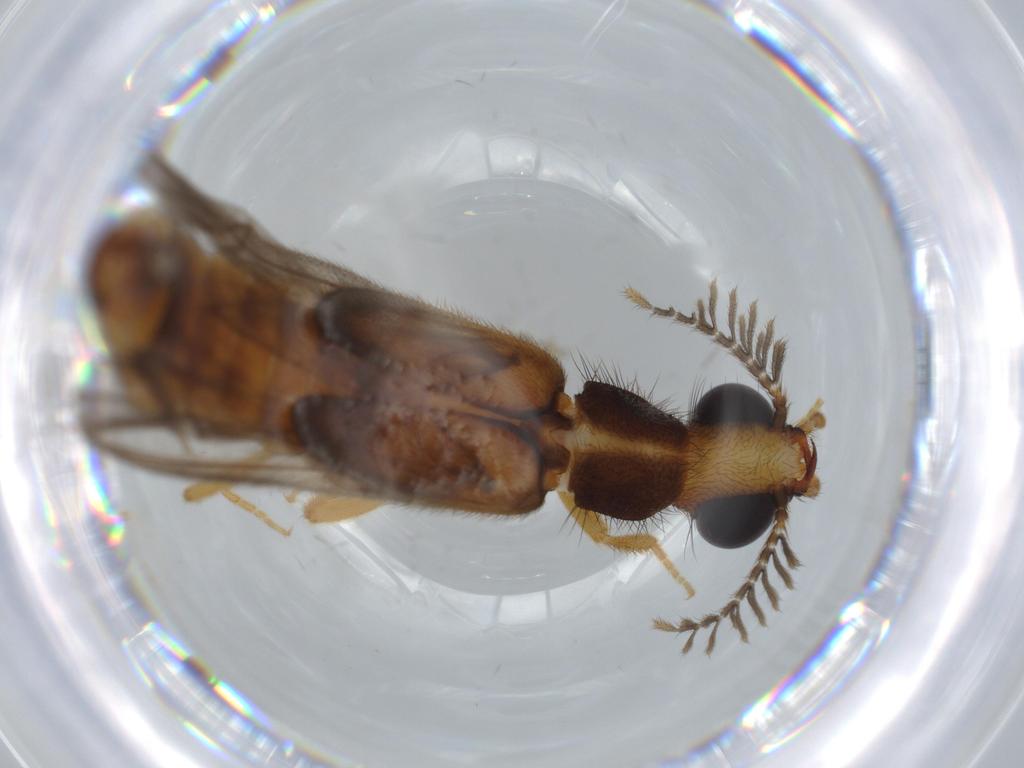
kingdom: Animalia
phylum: Arthropoda
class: Insecta
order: Coleoptera
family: Phengodidae
